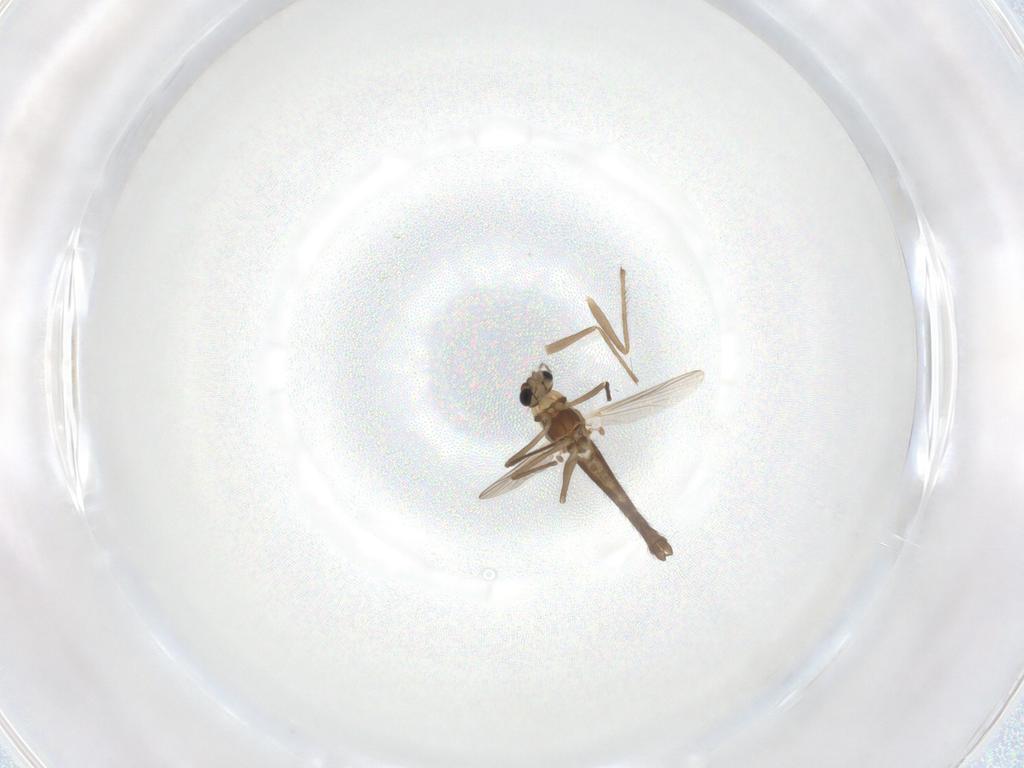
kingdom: Animalia
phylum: Arthropoda
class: Insecta
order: Diptera
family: Chironomidae
